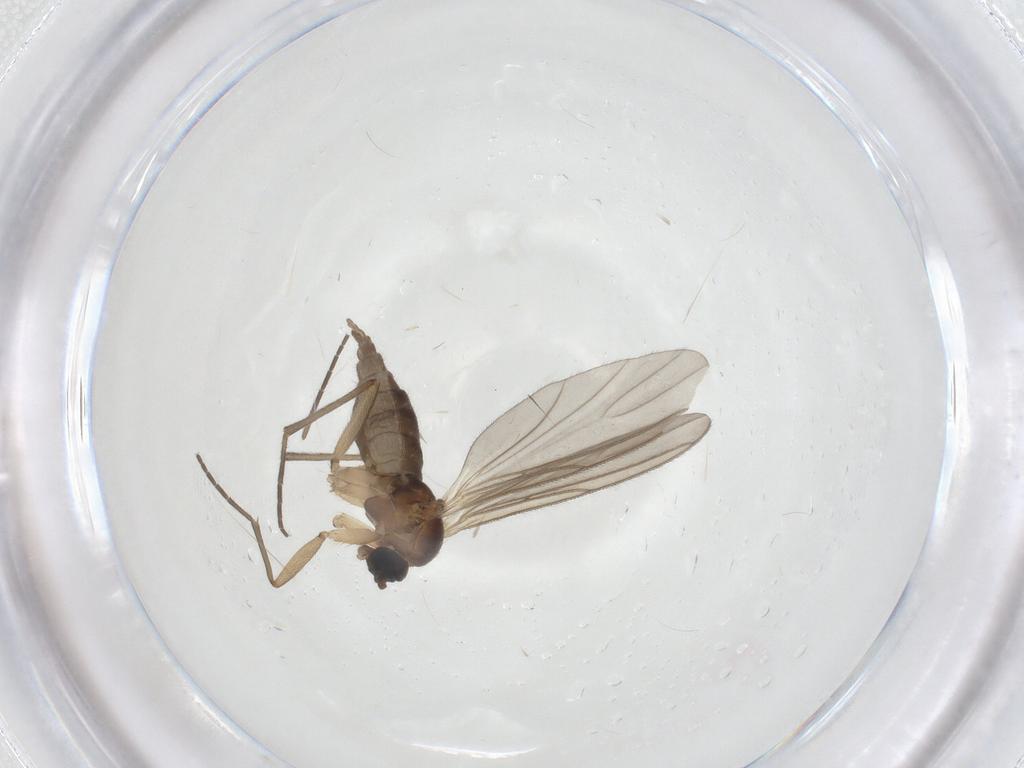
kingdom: Animalia
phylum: Arthropoda
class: Insecta
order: Diptera
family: Sciaridae
